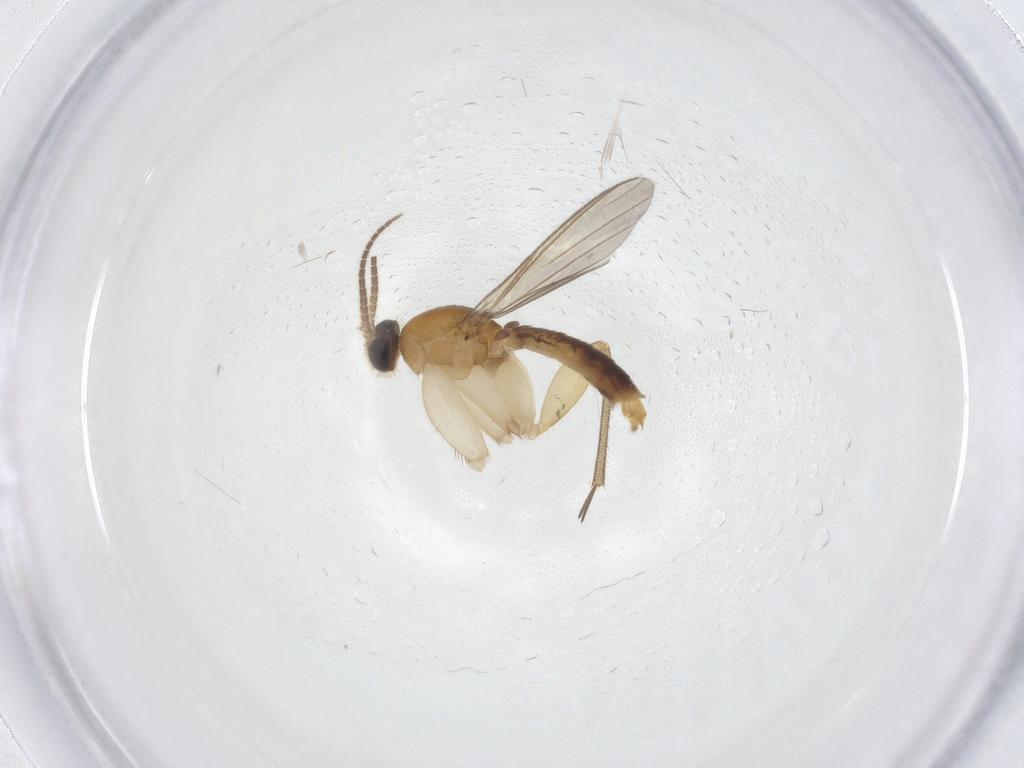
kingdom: Animalia
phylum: Arthropoda
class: Insecta
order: Diptera
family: Mycetophilidae
